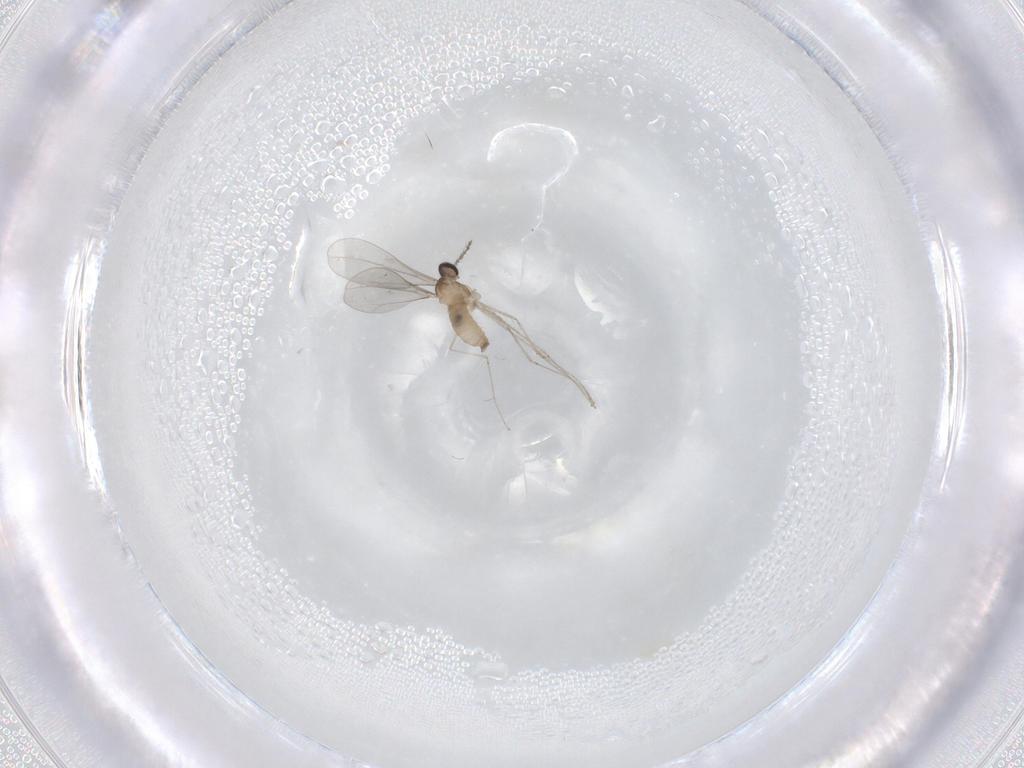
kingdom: Animalia
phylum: Arthropoda
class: Insecta
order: Diptera
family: Cecidomyiidae
